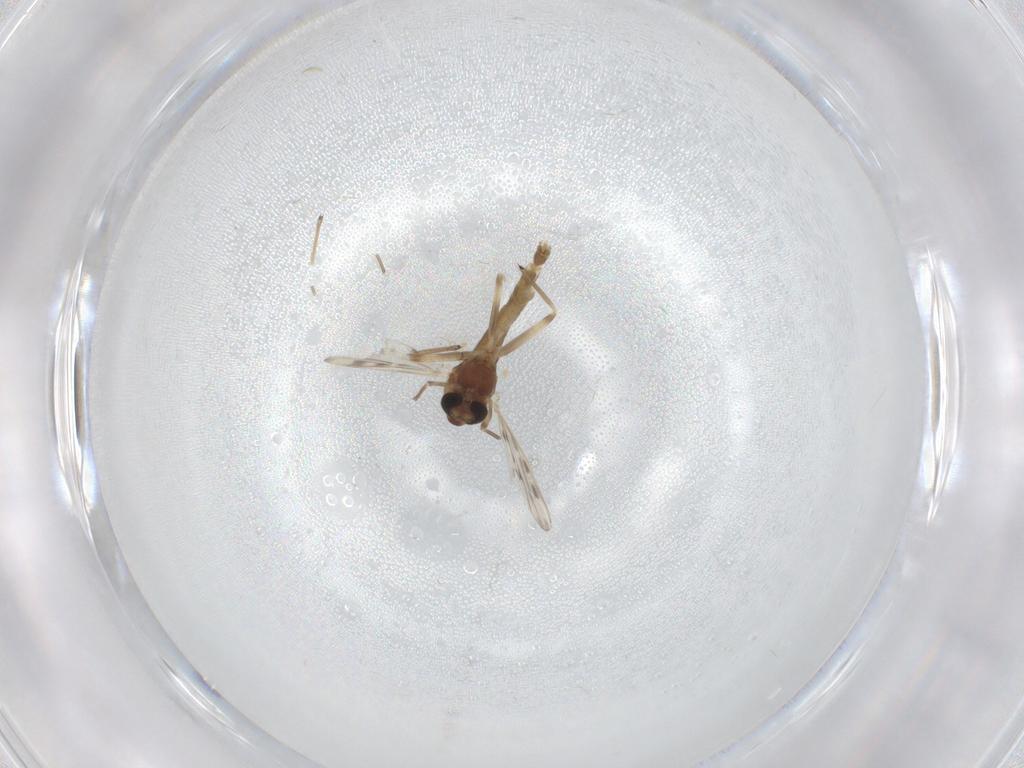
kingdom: Animalia
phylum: Arthropoda
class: Insecta
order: Diptera
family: Chironomidae
